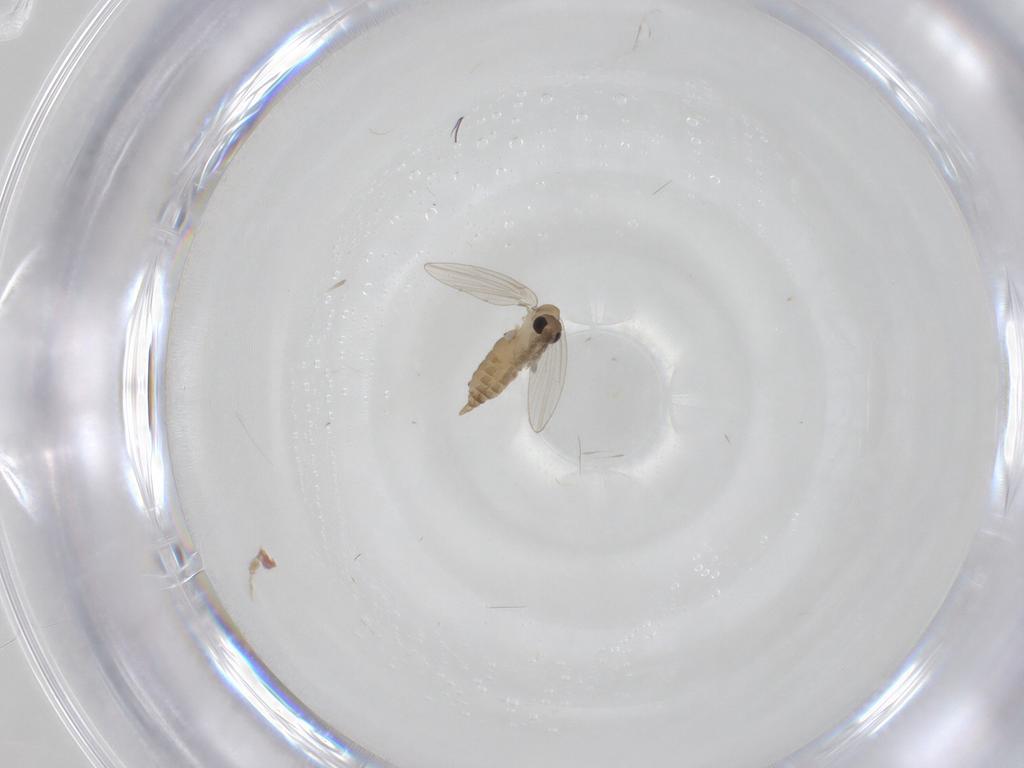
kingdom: Animalia
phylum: Arthropoda
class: Insecta
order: Diptera
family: Psychodidae
